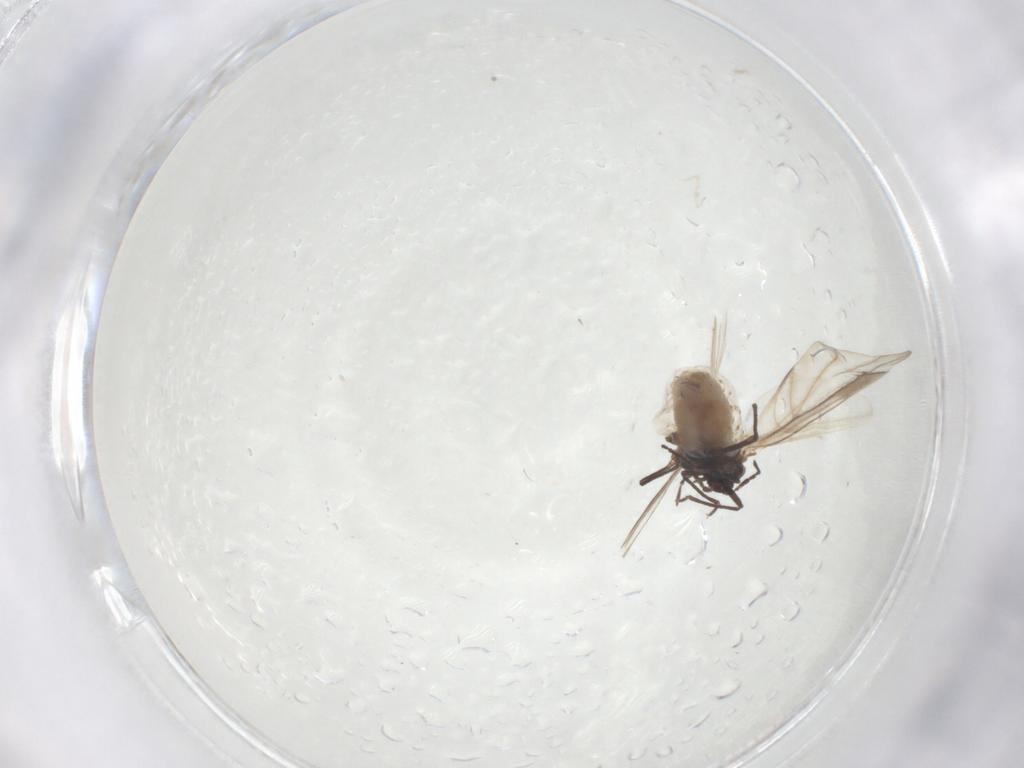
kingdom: Animalia
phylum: Arthropoda
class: Insecta
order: Hemiptera
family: Aphididae
